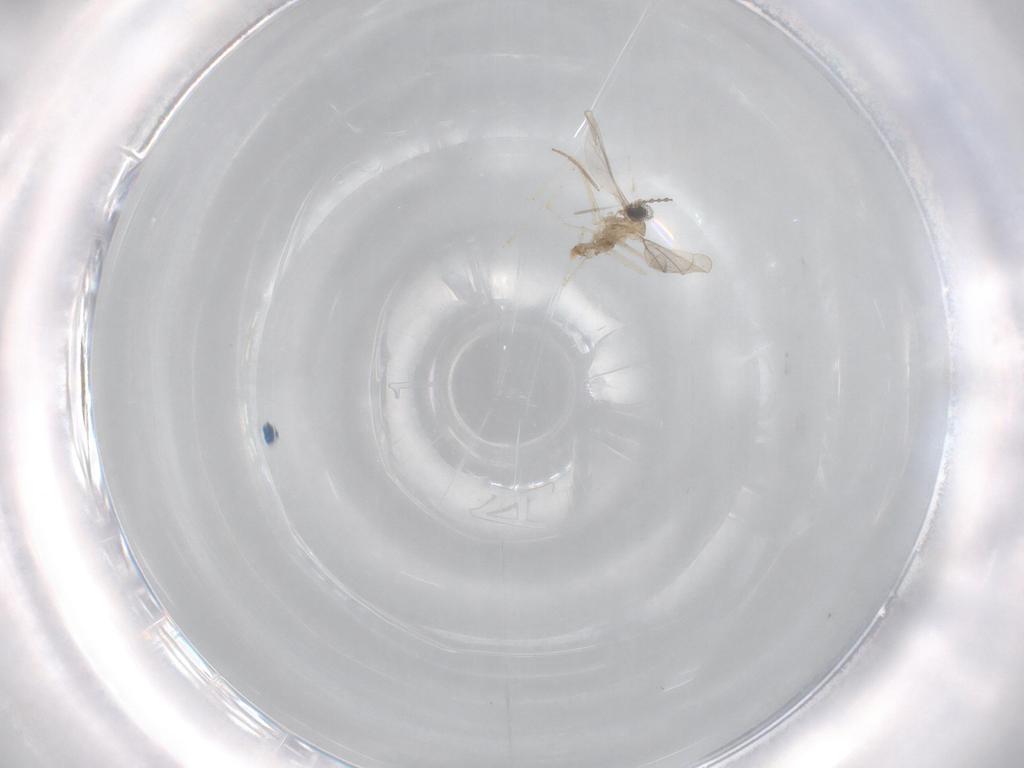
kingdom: Animalia
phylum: Arthropoda
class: Insecta
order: Diptera
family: Cecidomyiidae
